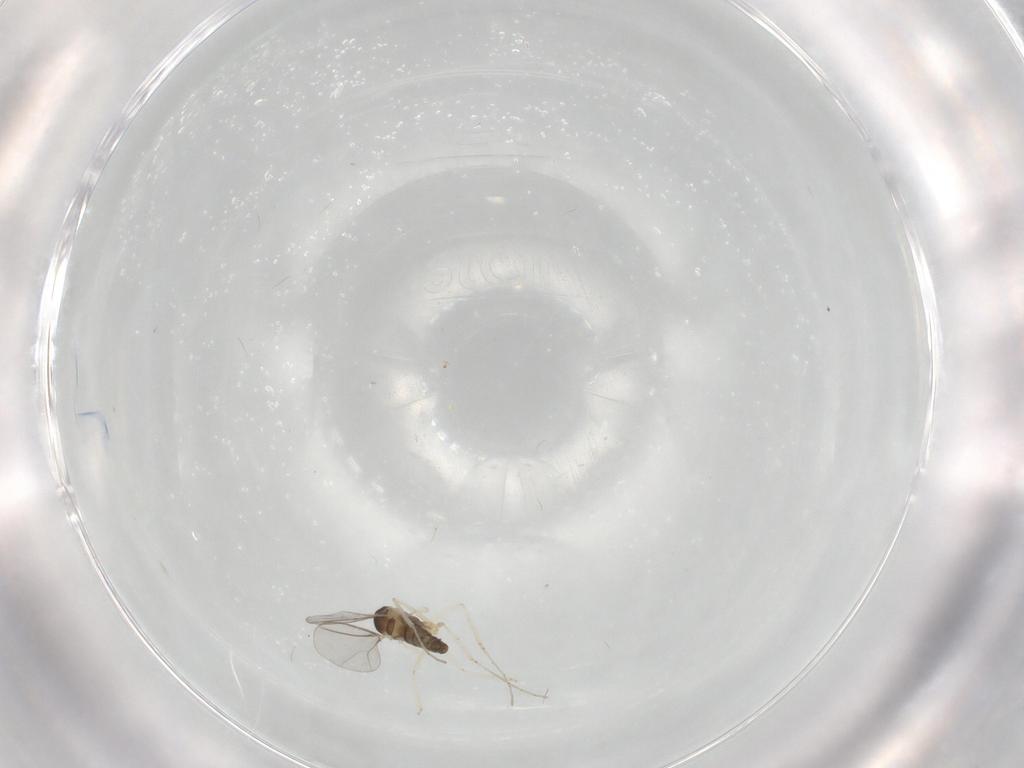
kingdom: Animalia
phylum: Arthropoda
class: Insecta
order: Diptera
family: Cecidomyiidae
